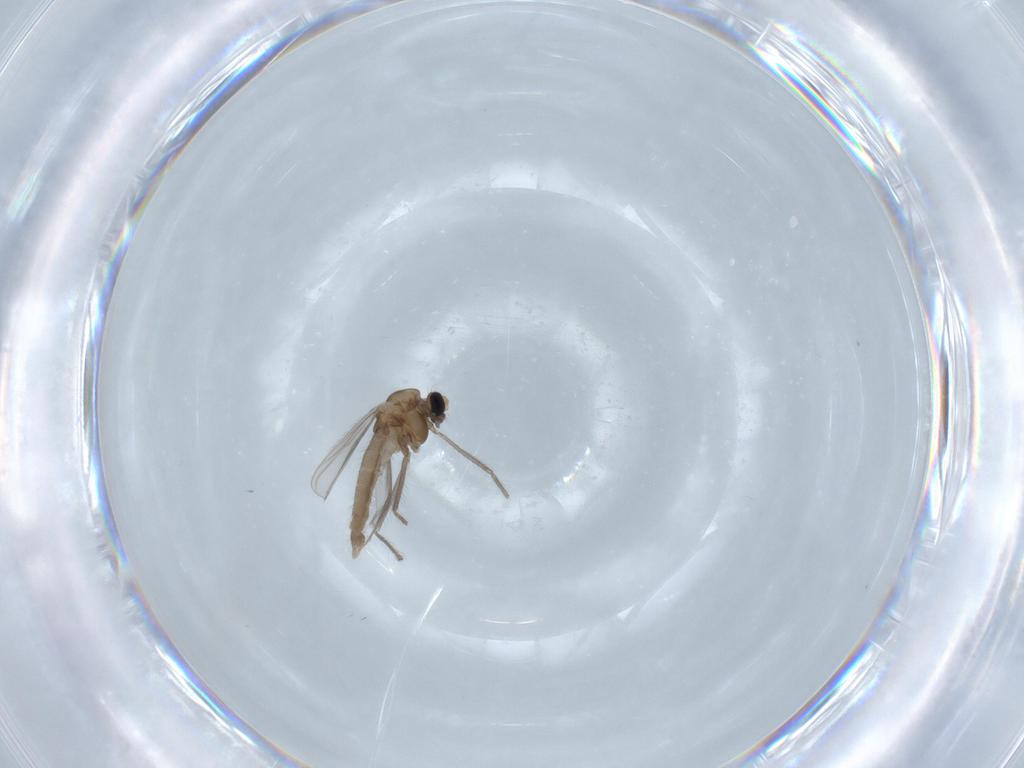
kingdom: Animalia
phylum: Arthropoda
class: Insecta
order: Diptera
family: Chironomidae
